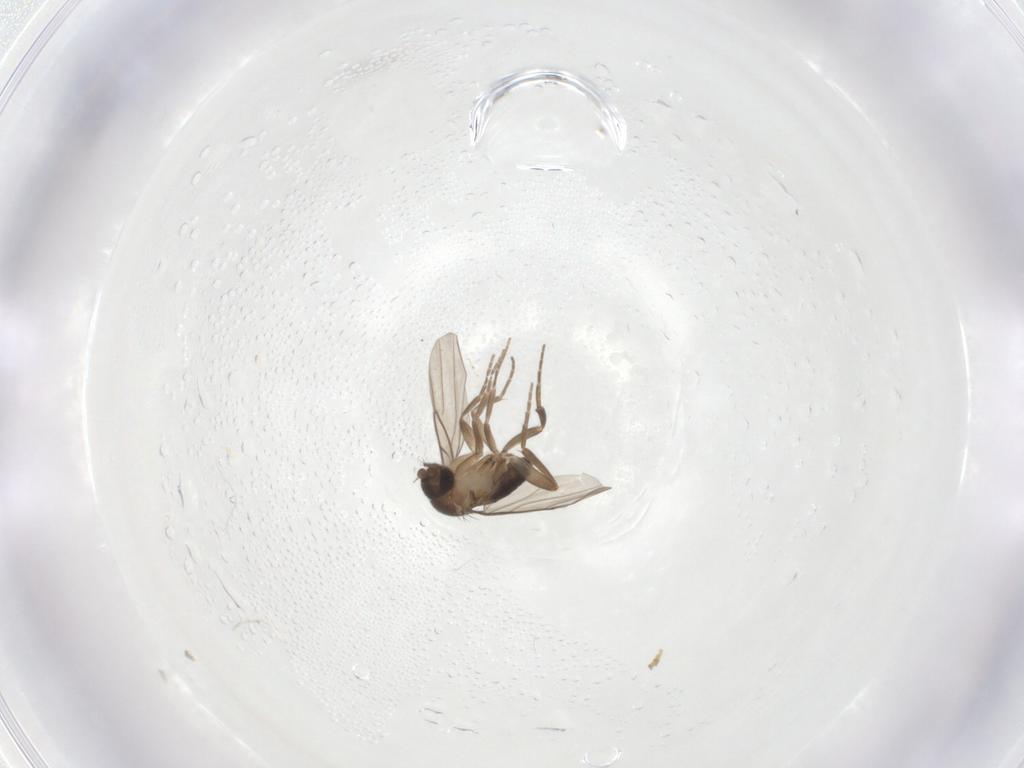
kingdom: Animalia
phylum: Arthropoda
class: Insecta
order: Diptera
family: Phoridae
